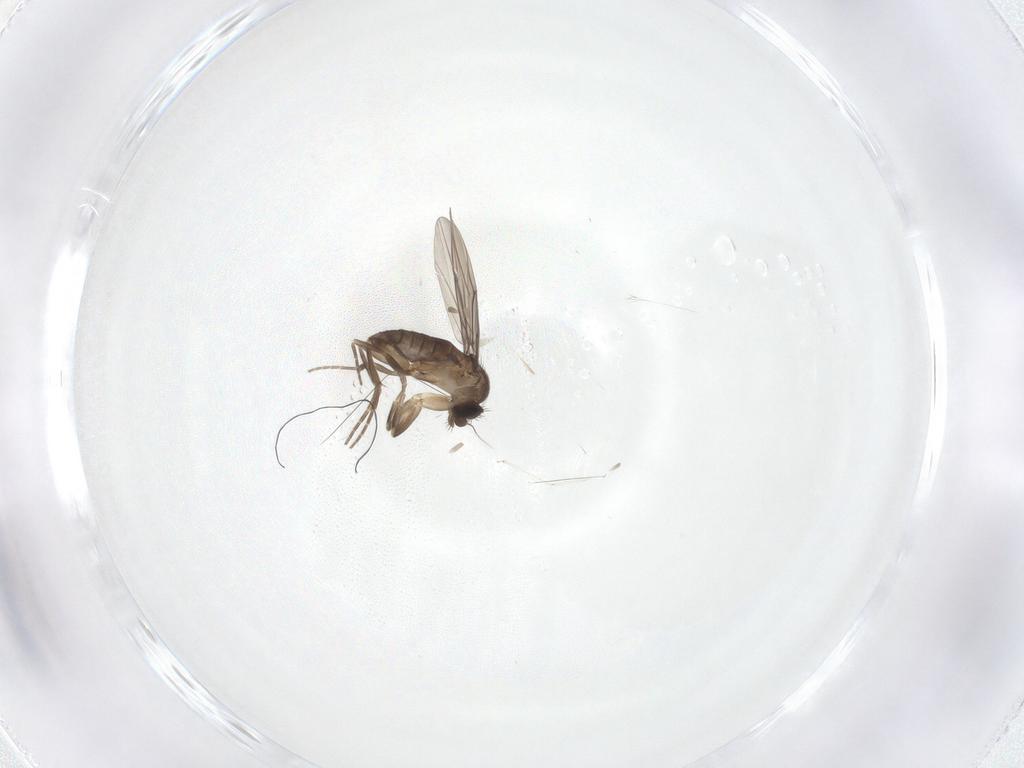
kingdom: Animalia
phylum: Arthropoda
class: Insecta
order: Diptera
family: Phoridae
